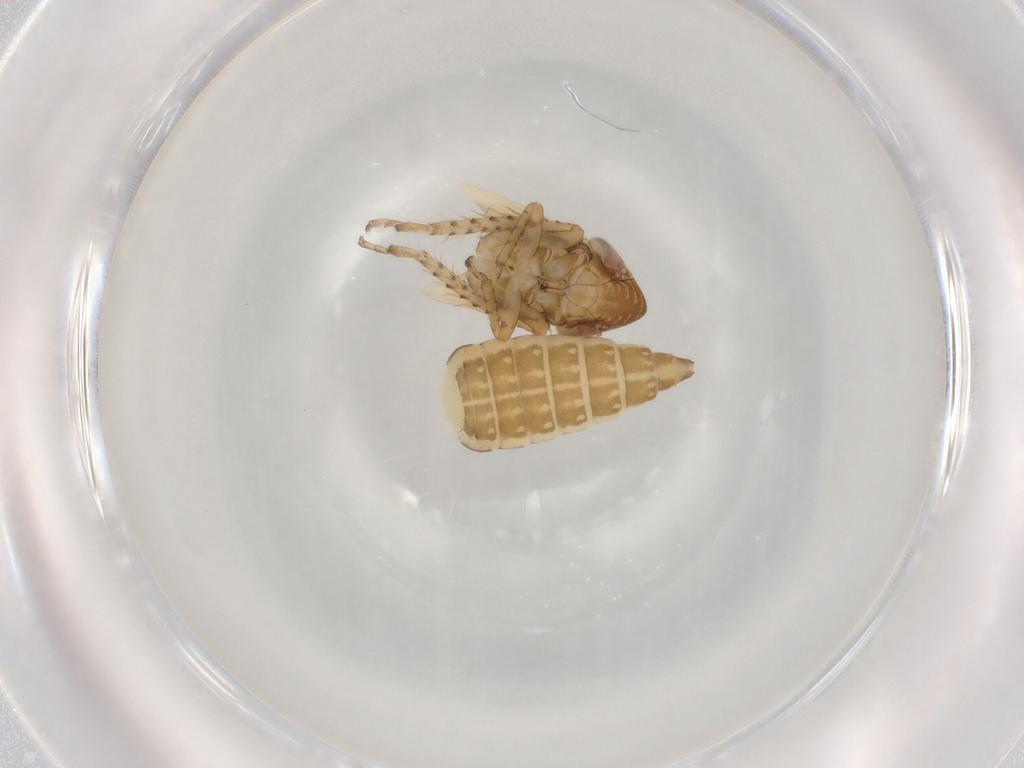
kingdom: Animalia
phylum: Arthropoda
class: Insecta
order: Hemiptera
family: Cicadellidae
